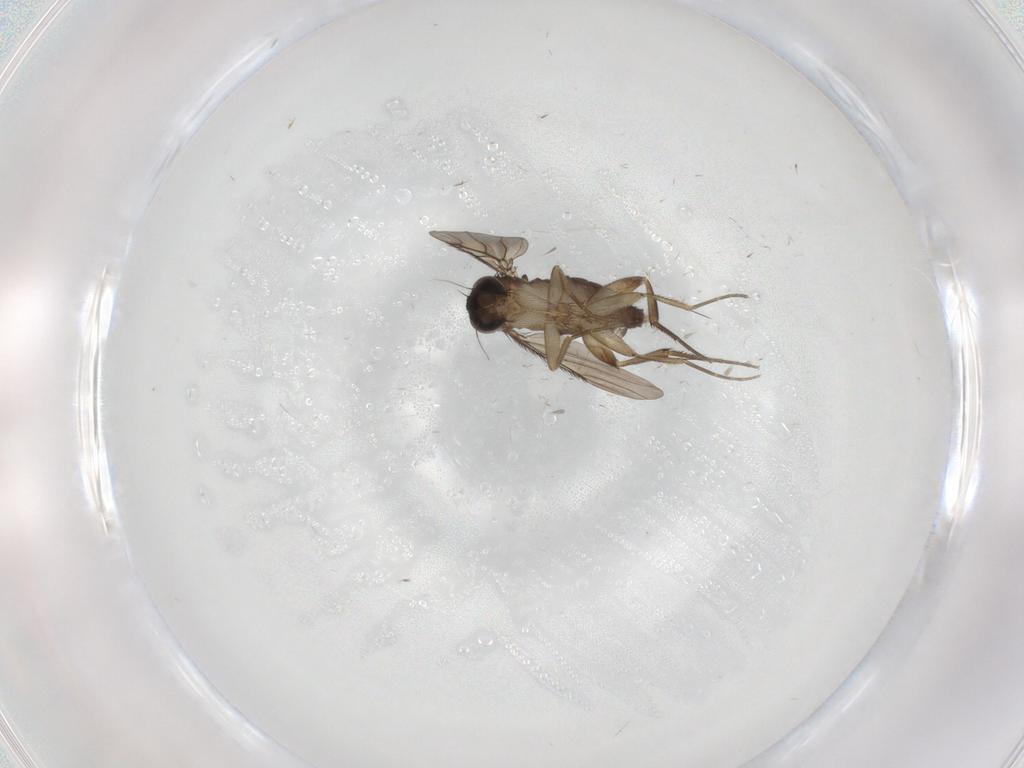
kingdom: Animalia
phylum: Arthropoda
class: Insecta
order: Diptera
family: Phoridae
